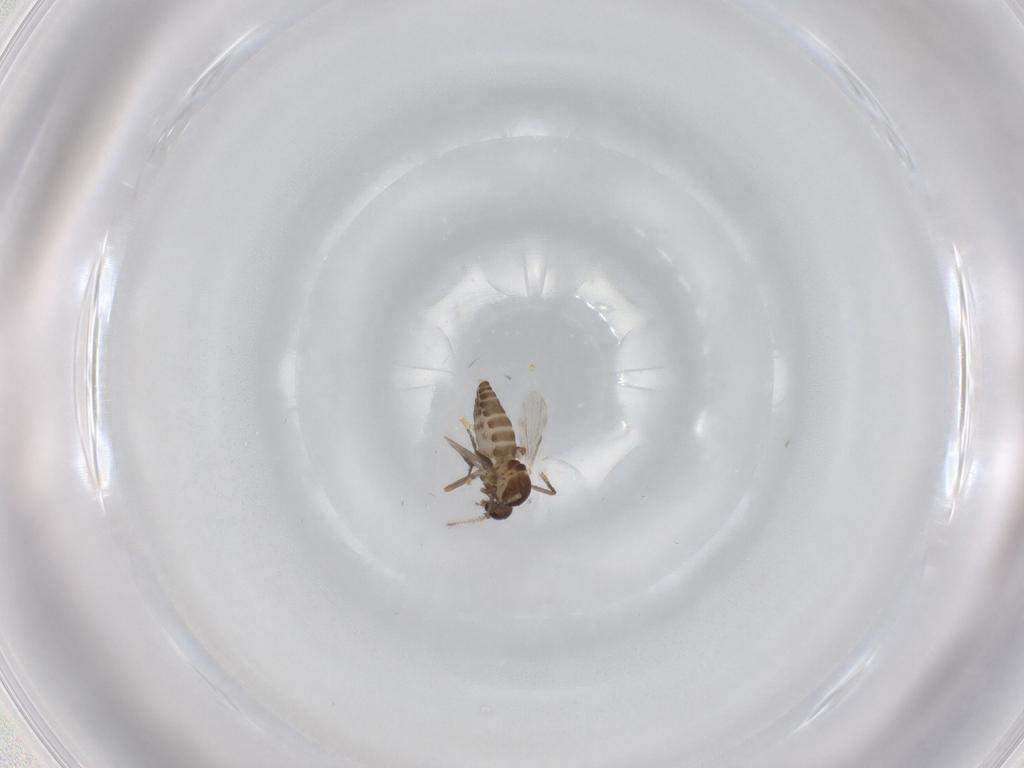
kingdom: Animalia
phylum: Arthropoda
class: Insecta
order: Diptera
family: Ceratopogonidae
